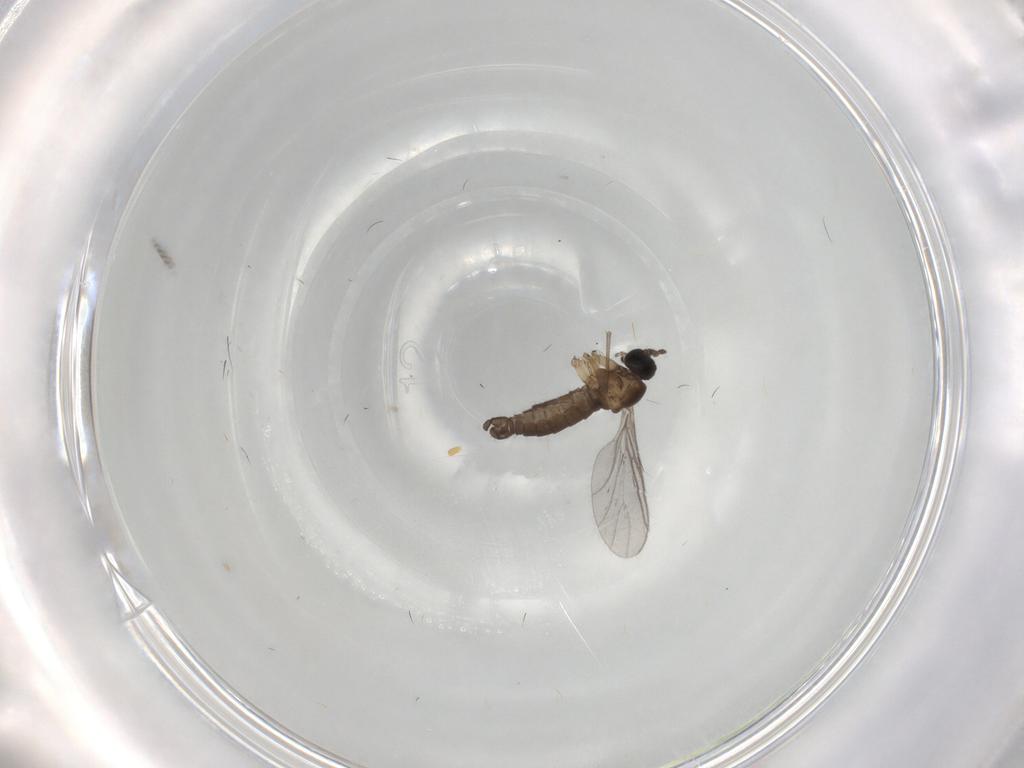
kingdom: Animalia
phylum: Arthropoda
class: Insecta
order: Diptera
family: Sciaridae
